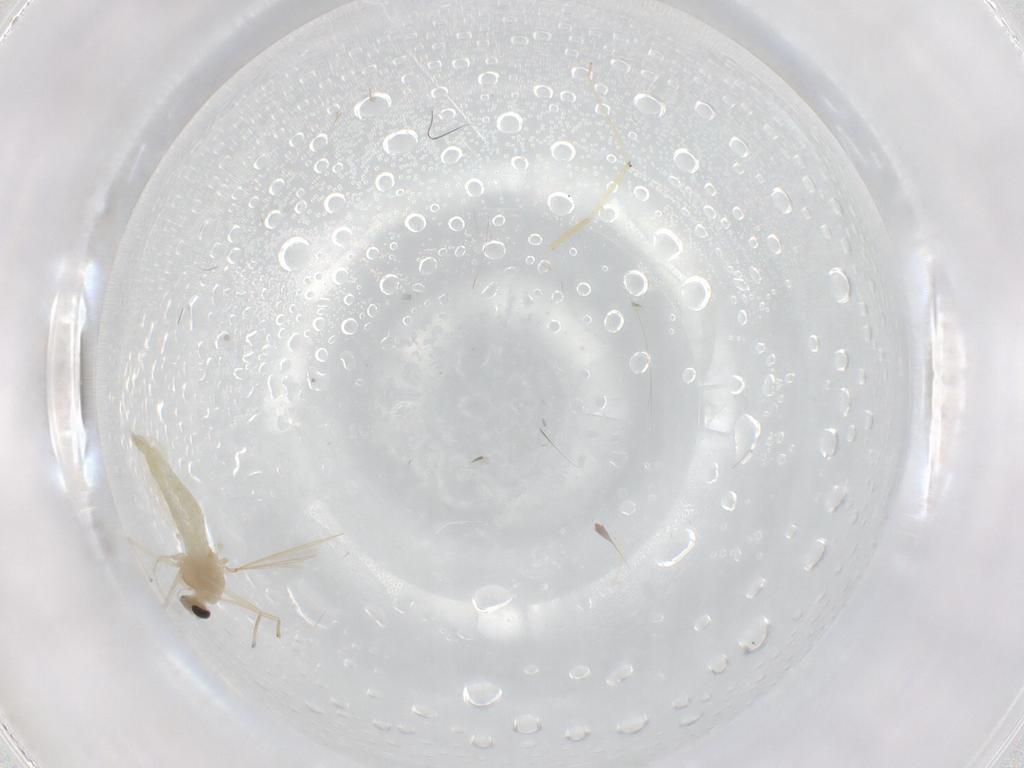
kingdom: Animalia
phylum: Arthropoda
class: Insecta
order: Diptera
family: Chironomidae
